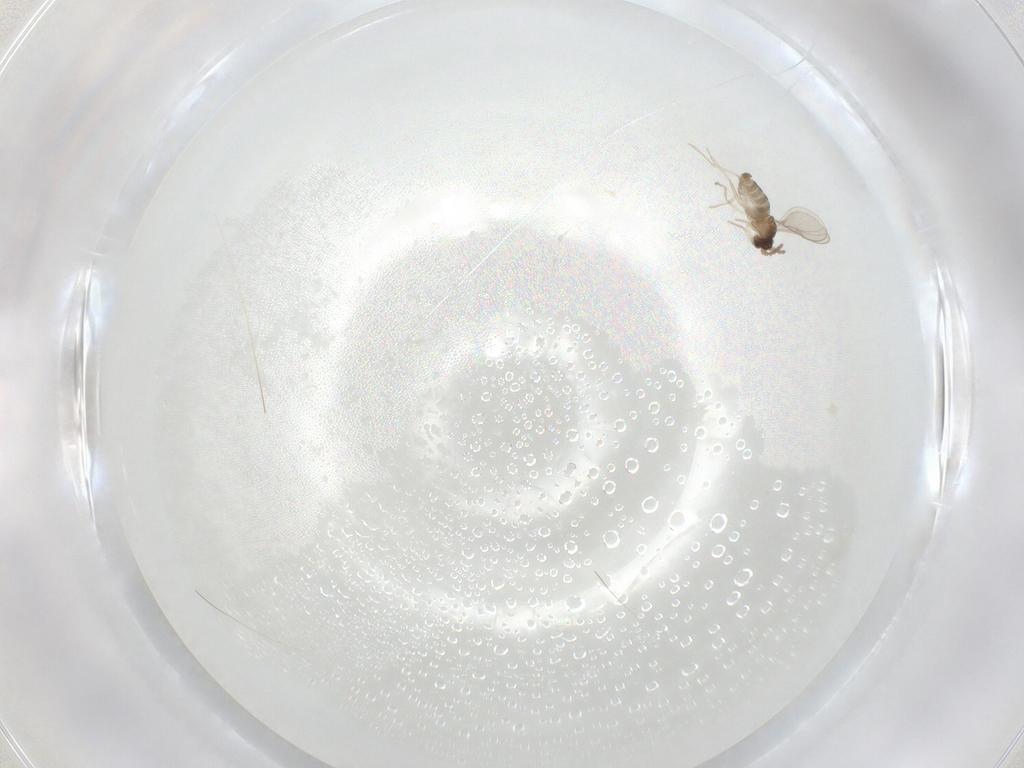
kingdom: Animalia
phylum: Arthropoda
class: Insecta
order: Diptera
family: Cecidomyiidae
